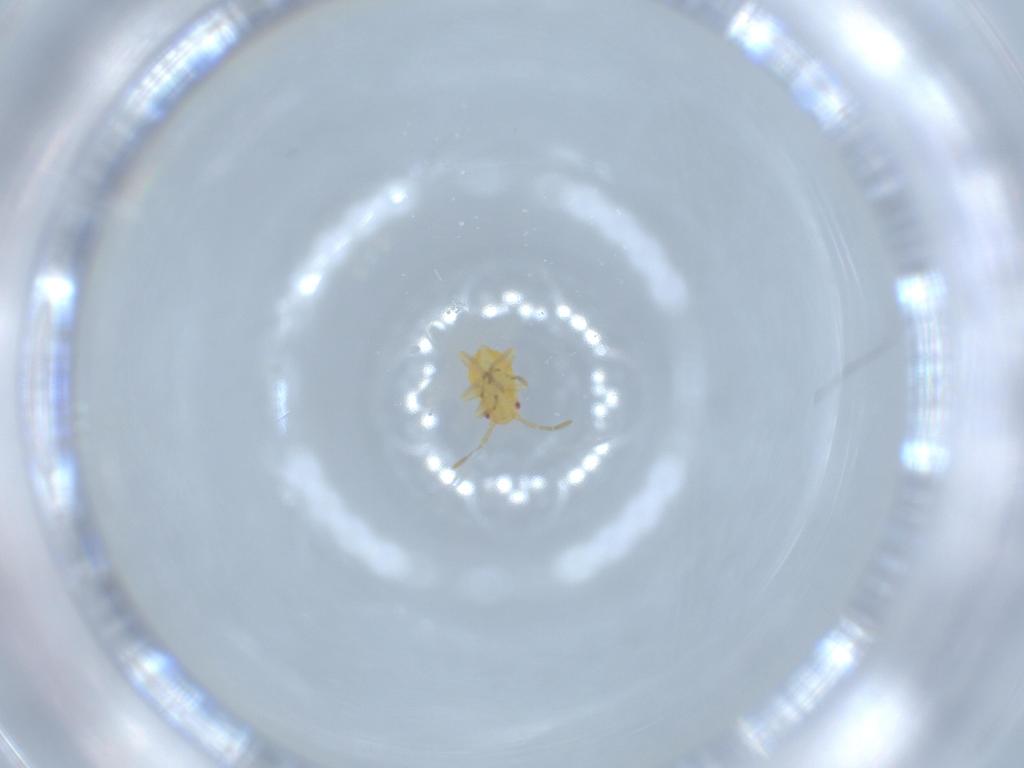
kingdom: Animalia
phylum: Arthropoda
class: Insecta
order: Hemiptera
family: Miridae
